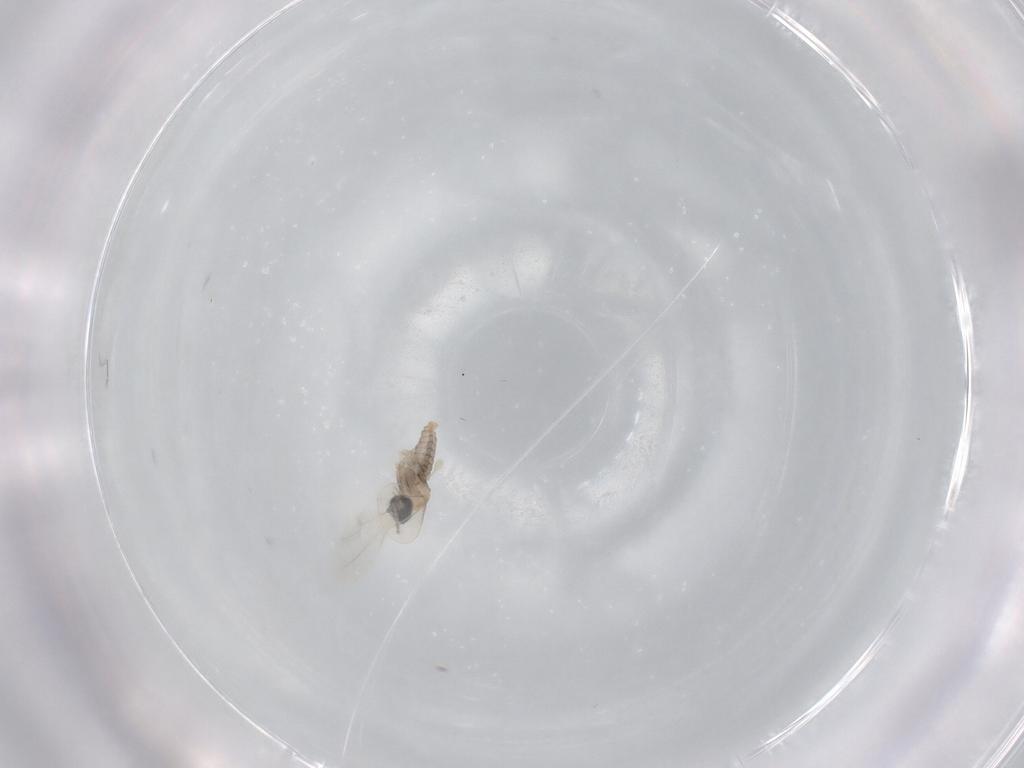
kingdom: Animalia
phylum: Arthropoda
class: Insecta
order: Diptera
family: Cecidomyiidae
